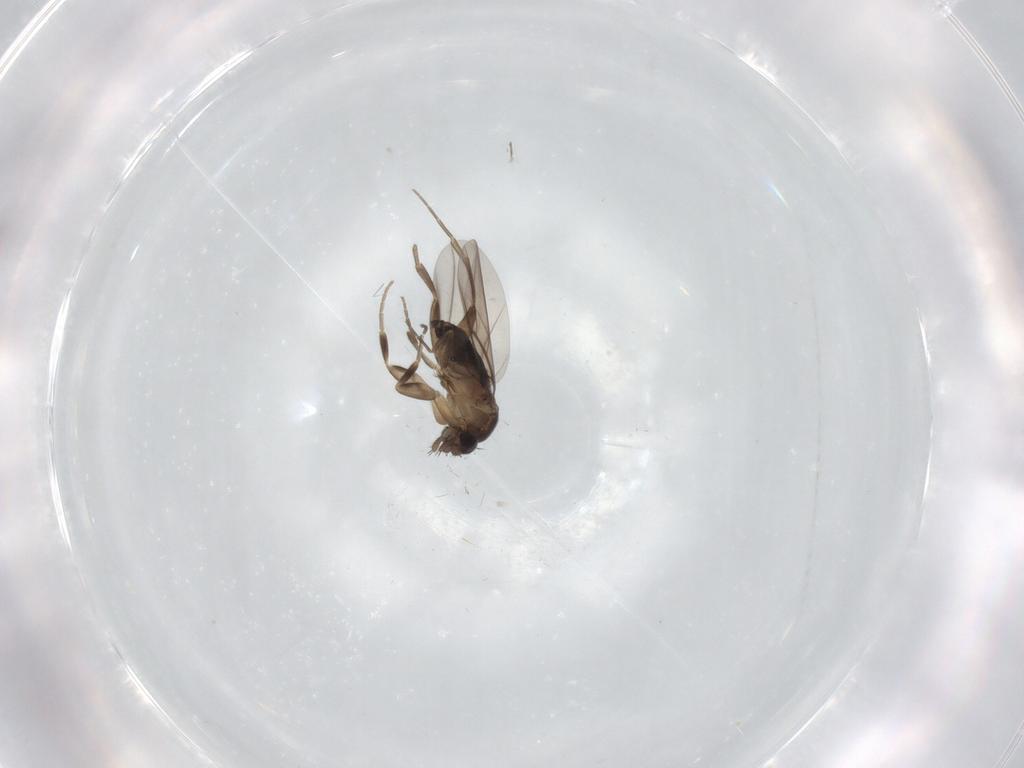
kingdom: Animalia
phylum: Arthropoda
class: Insecta
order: Diptera
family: Phoridae
